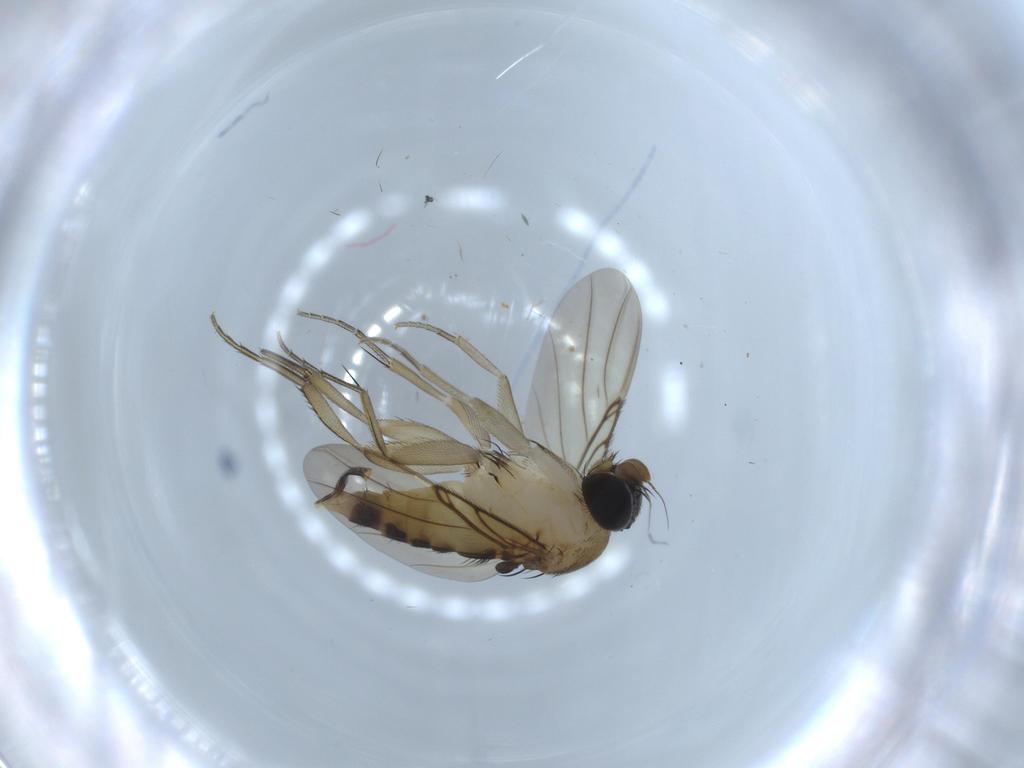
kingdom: Animalia
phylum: Arthropoda
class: Insecta
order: Diptera
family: Phoridae
